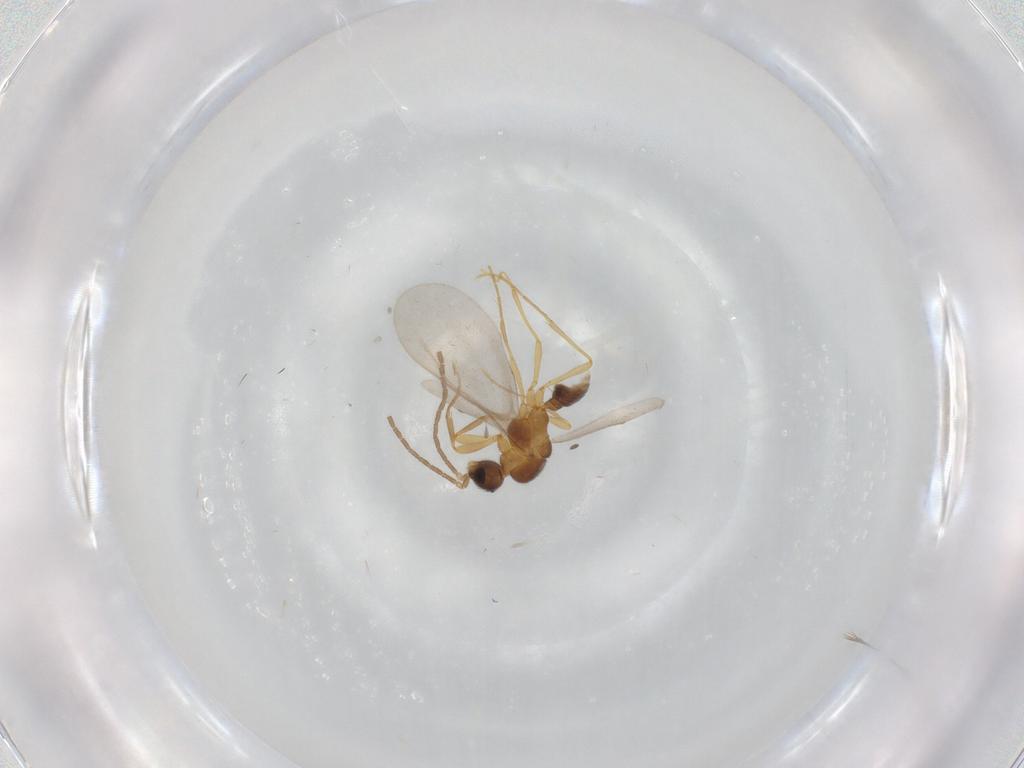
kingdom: Animalia
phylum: Arthropoda
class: Insecta
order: Hymenoptera
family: Formicidae
